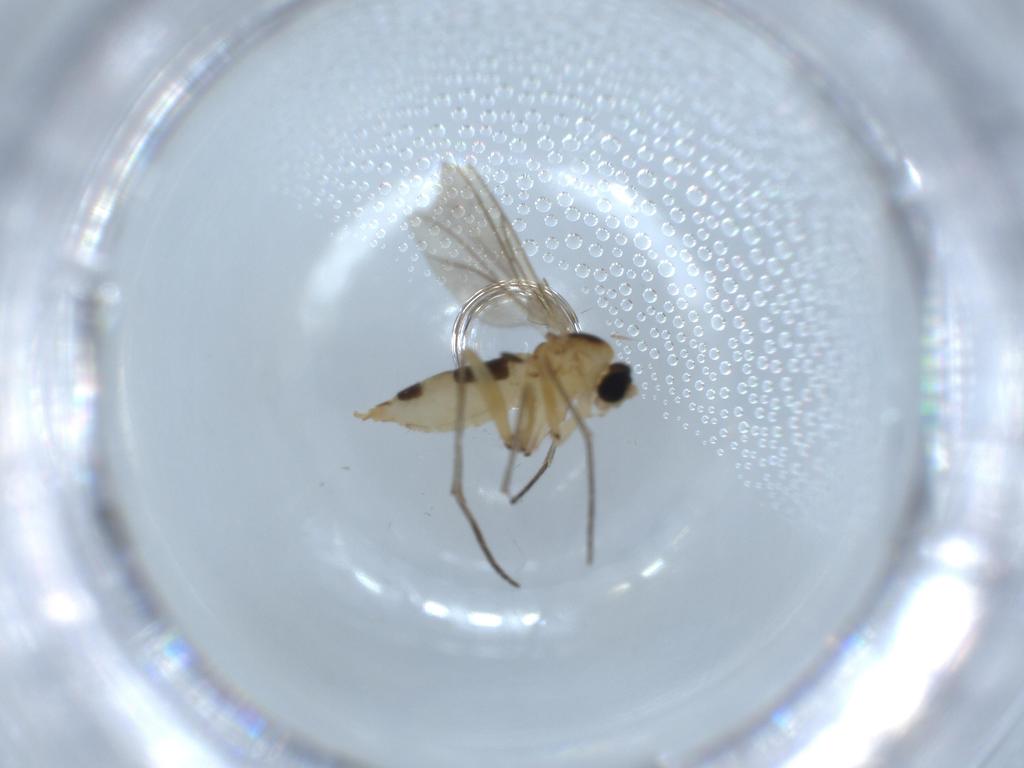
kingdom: Animalia
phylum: Arthropoda
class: Insecta
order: Diptera
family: Sciaridae
